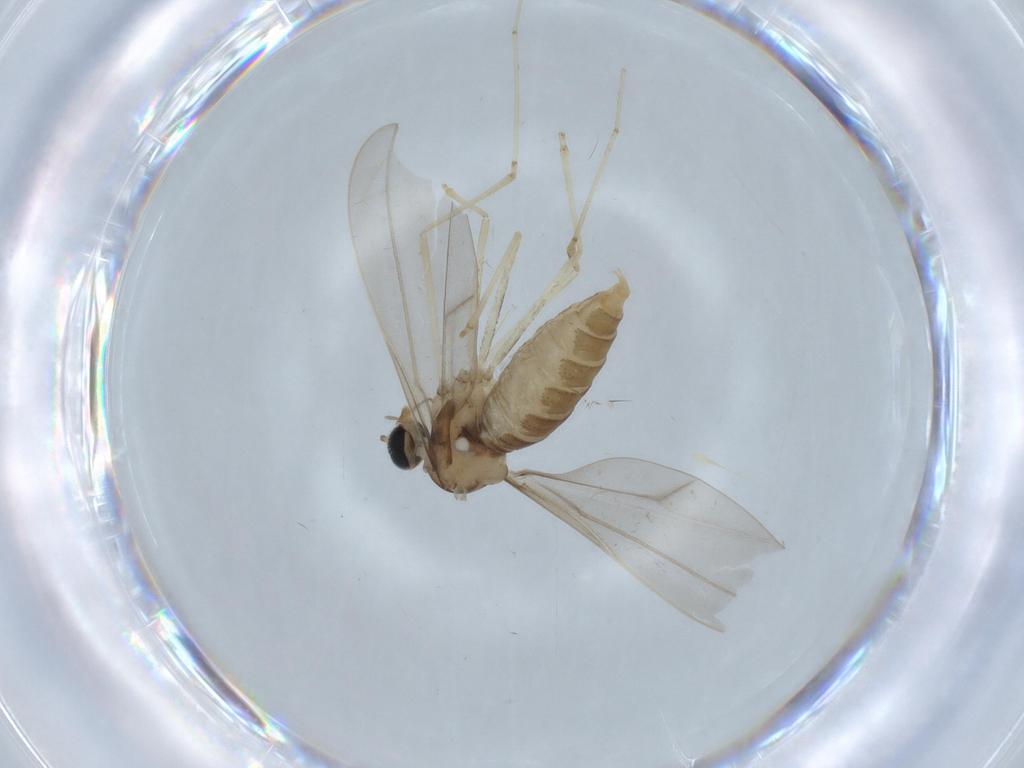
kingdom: Animalia
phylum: Arthropoda
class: Insecta
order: Diptera
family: Cecidomyiidae
